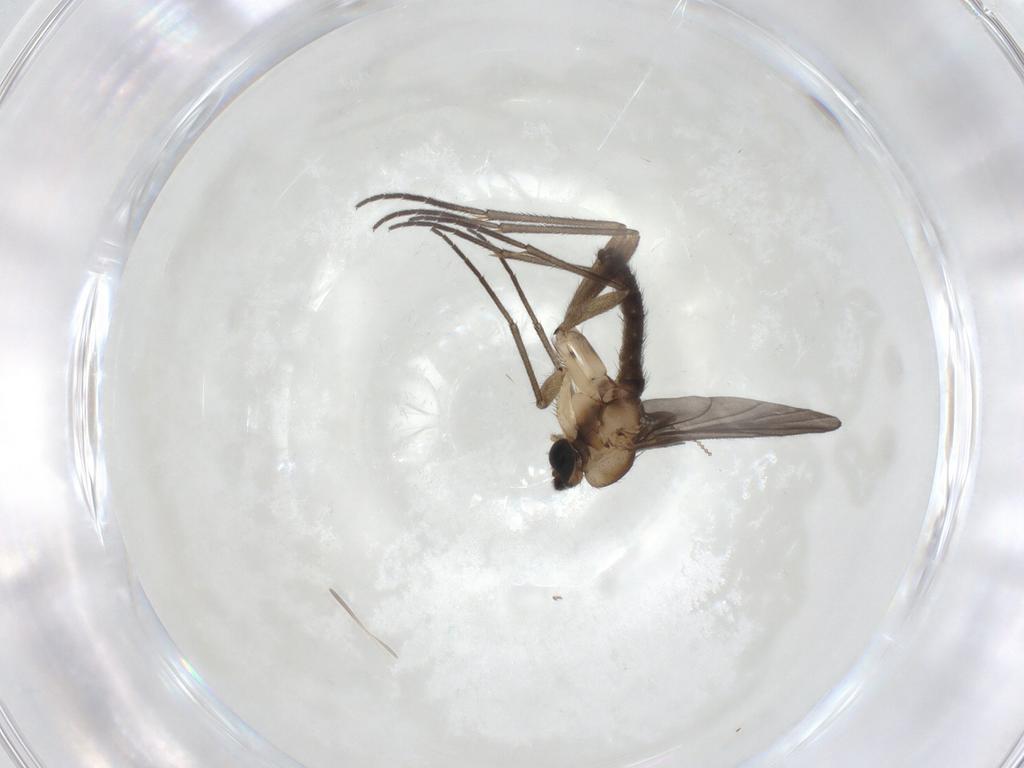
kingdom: Animalia
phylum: Arthropoda
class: Insecta
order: Diptera
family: Ceratopogonidae
